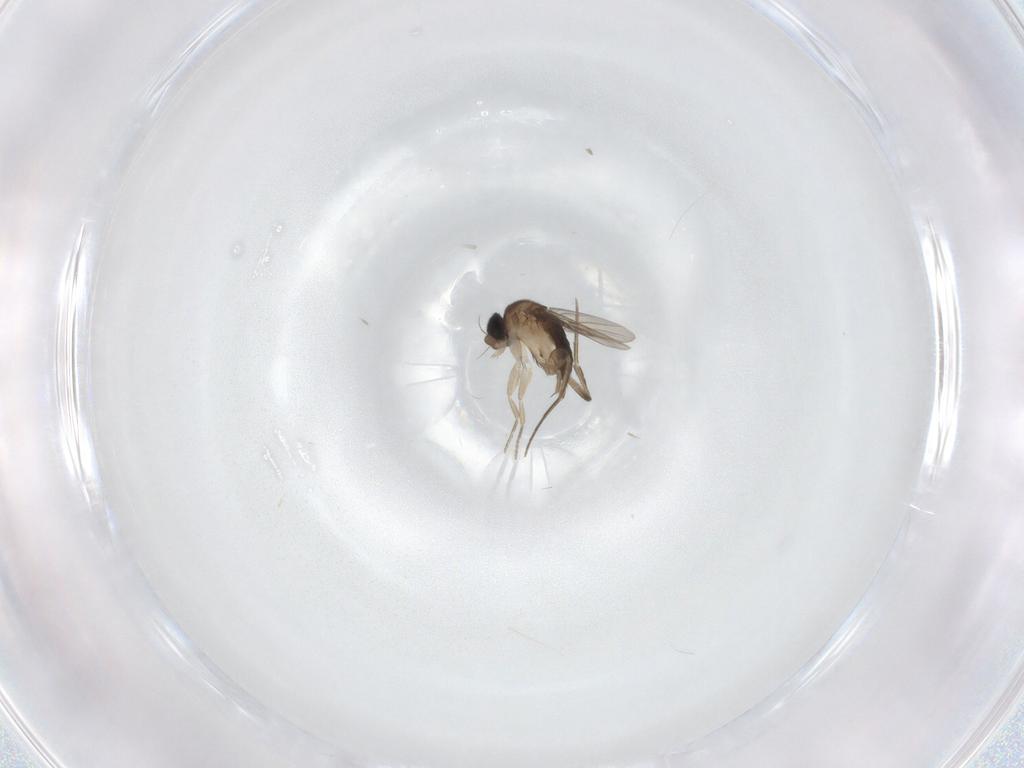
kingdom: Animalia
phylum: Arthropoda
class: Insecta
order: Diptera
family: Phoridae
